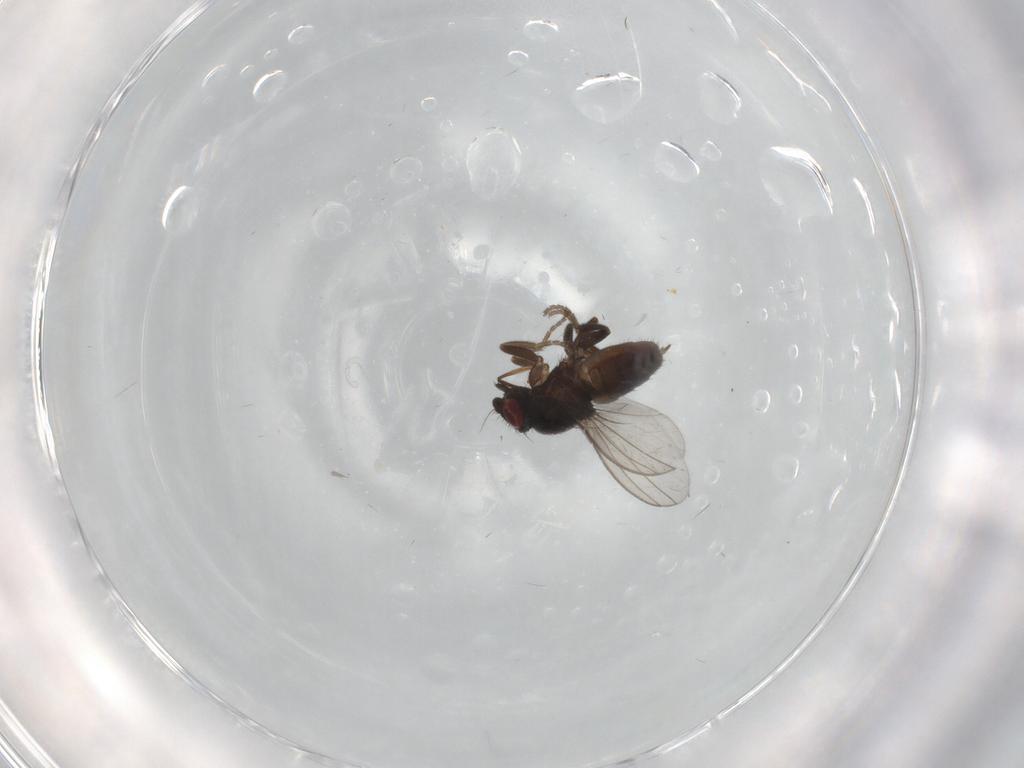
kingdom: Animalia
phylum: Arthropoda
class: Insecta
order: Diptera
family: Milichiidae
